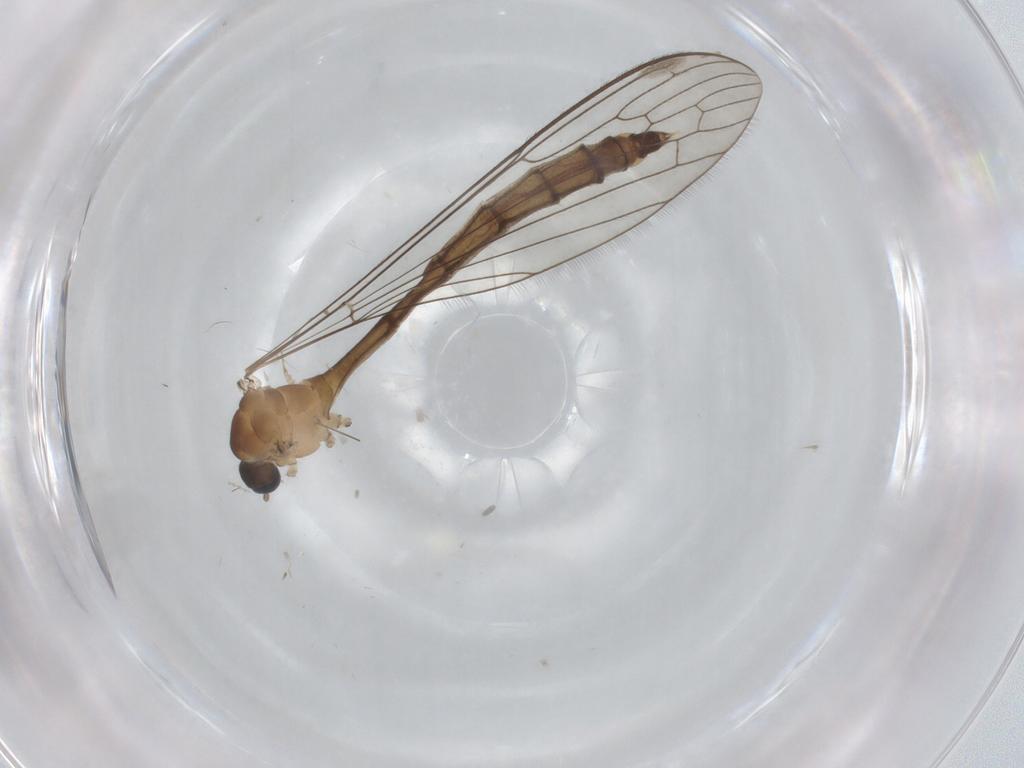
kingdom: Animalia
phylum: Arthropoda
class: Insecta
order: Diptera
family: Limoniidae
